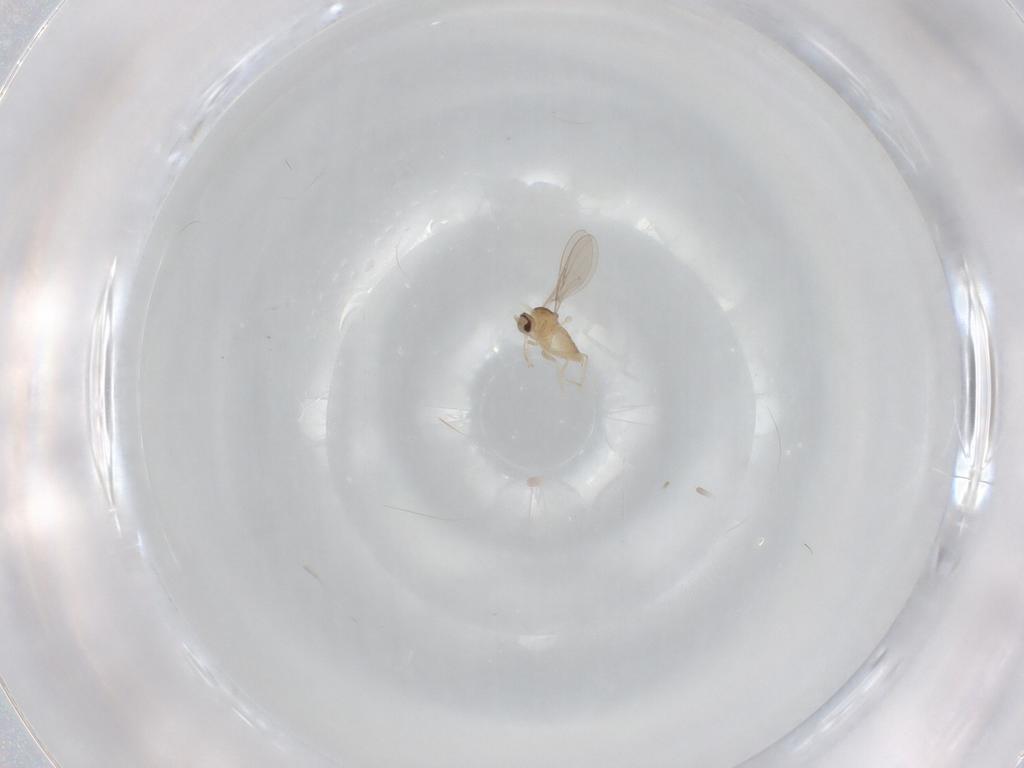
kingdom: Animalia
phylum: Arthropoda
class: Insecta
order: Diptera
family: Cecidomyiidae
